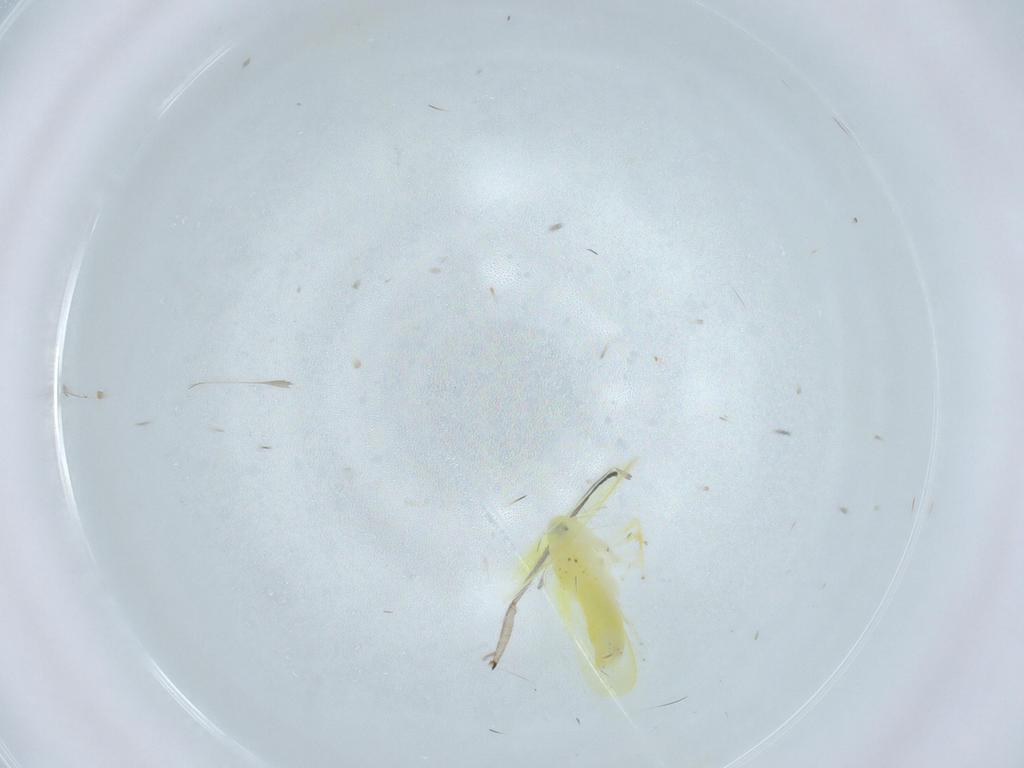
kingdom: Animalia
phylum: Arthropoda
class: Insecta
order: Hemiptera
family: Cicadellidae
